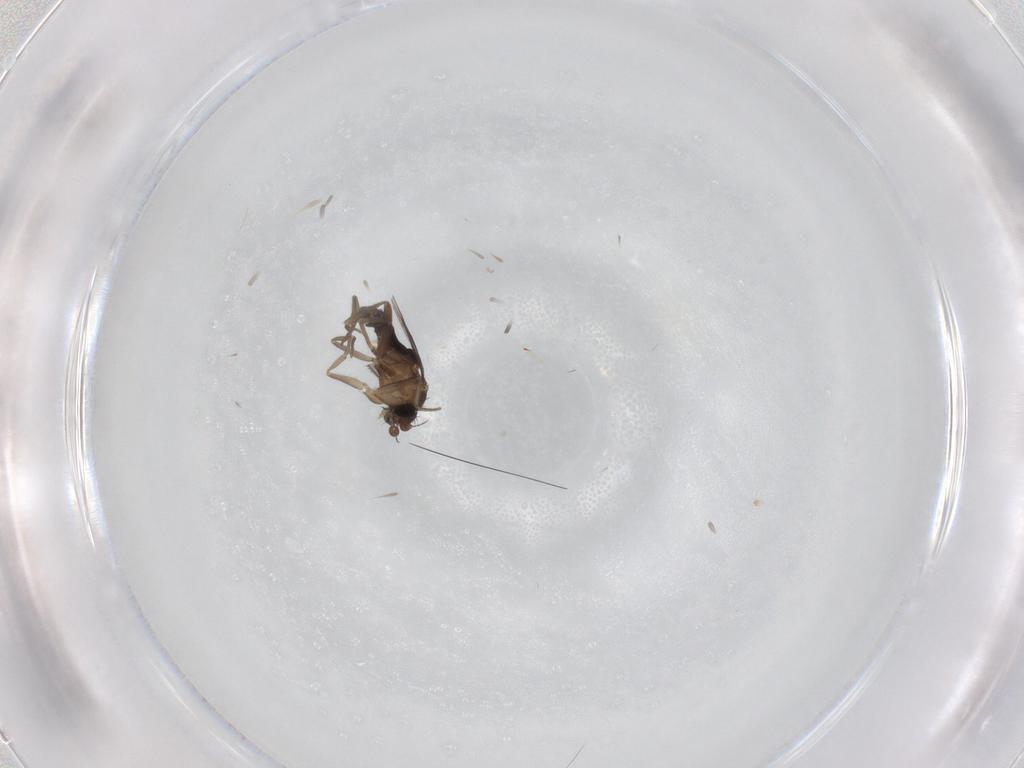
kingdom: Animalia
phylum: Arthropoda
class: Insecta
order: Diptera
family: Phoridae
